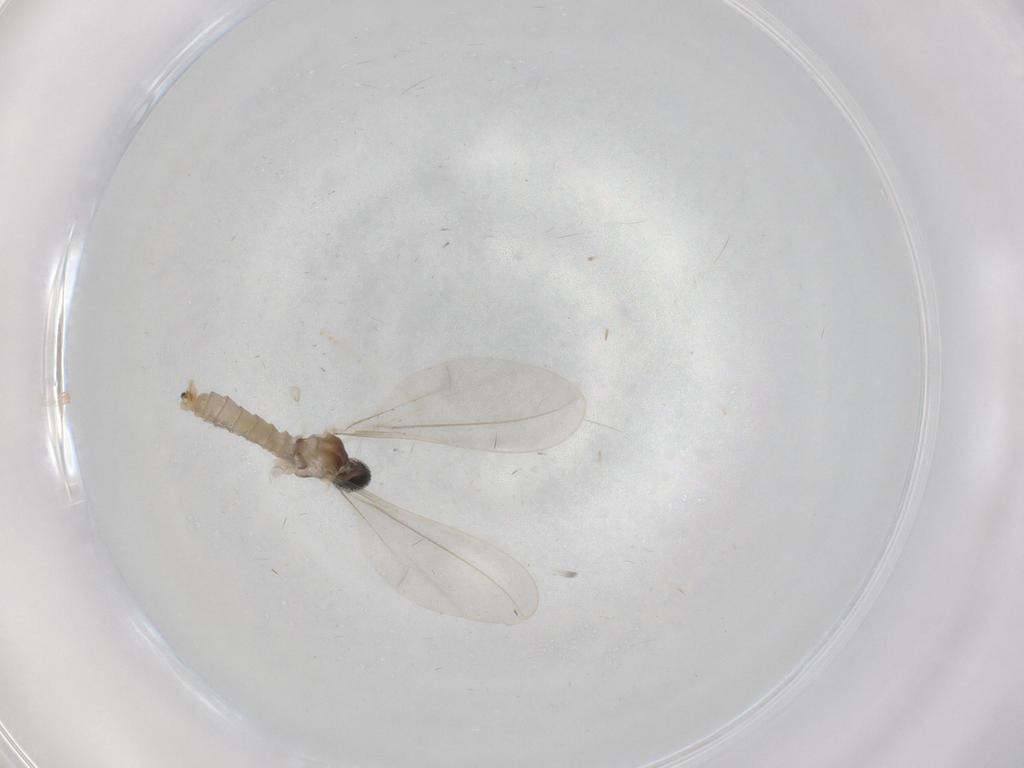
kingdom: Animalia
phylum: Arthropoda
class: Insecta
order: Diptera
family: Cecidomyiidae
